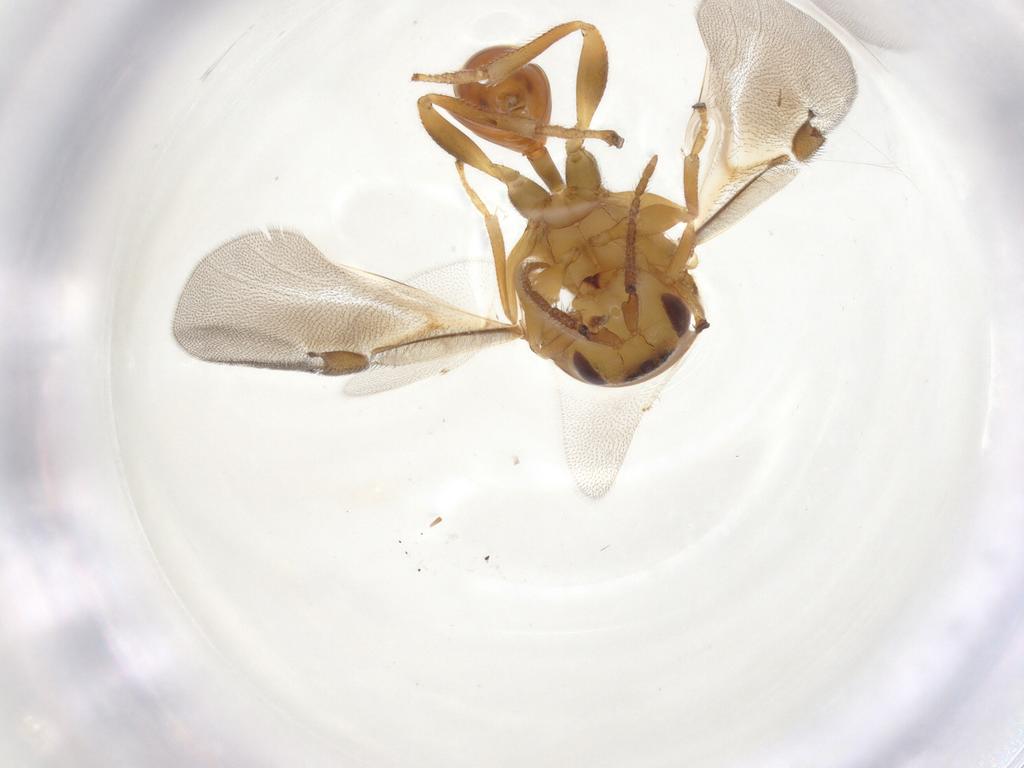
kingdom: Animalia
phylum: Arthropoda
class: Insecta
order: Hymenoptera
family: Eurytomidae
